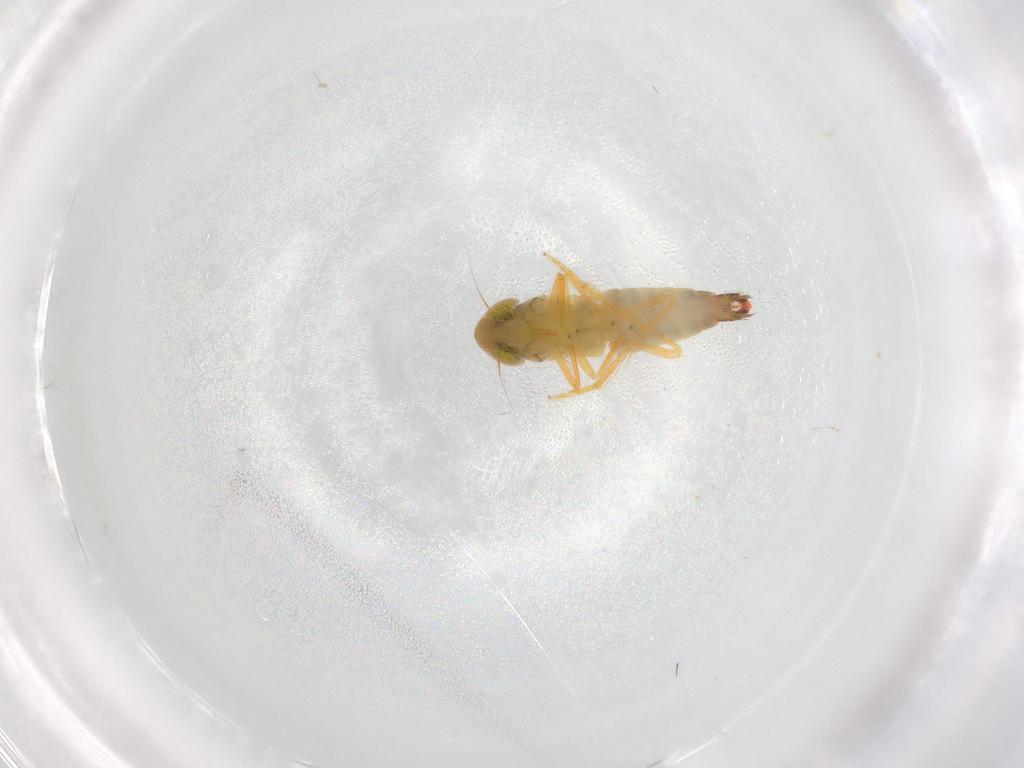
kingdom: Animalia
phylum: Arthropoda
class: Insecta
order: Hemiptera
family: Cicadellidae
